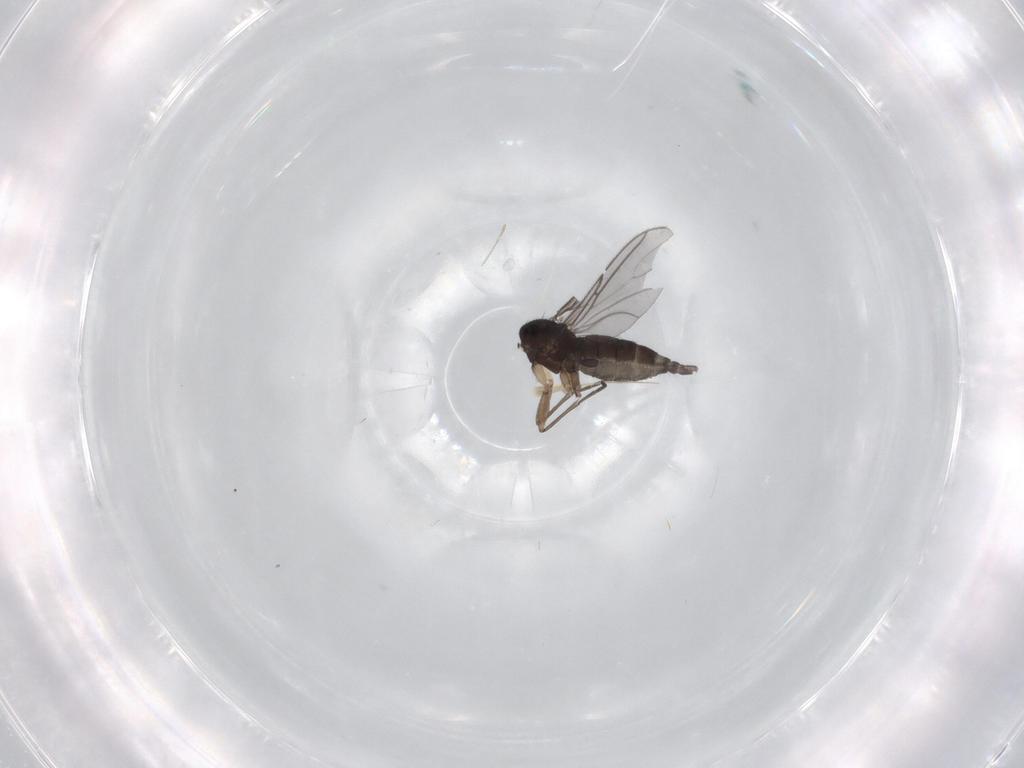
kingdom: Animalia
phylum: Arthropoda
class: Insecta
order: Diptera
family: Sciaridae
